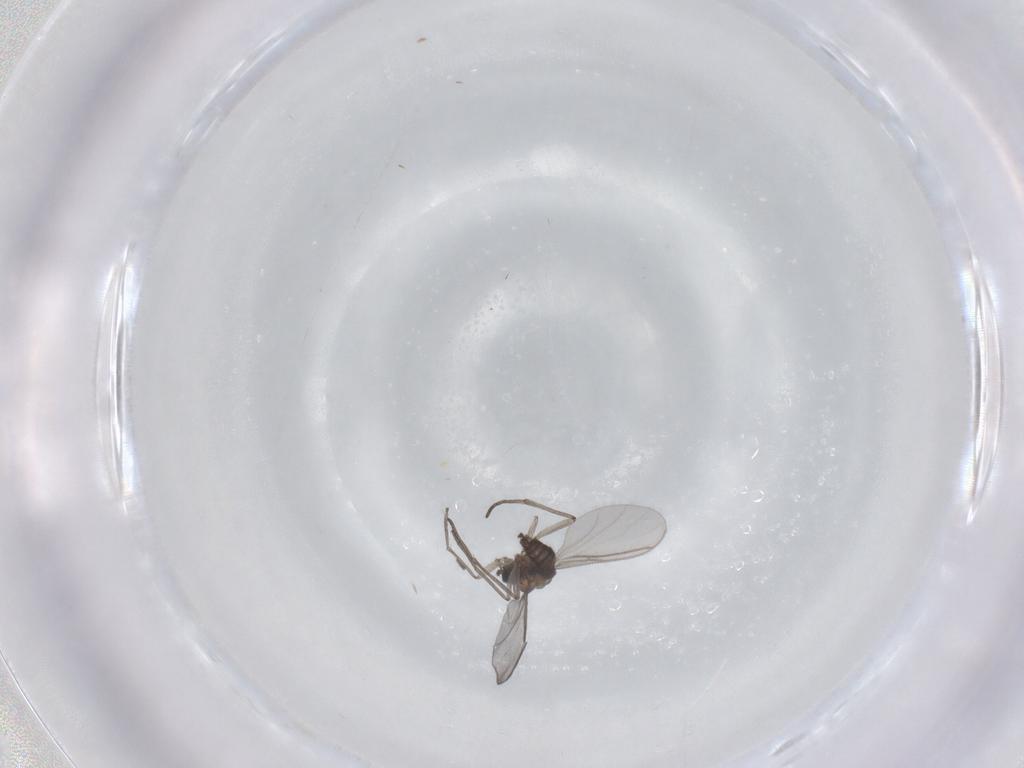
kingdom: Animalia
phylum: Arthropoda
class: Insecta
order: Diptera
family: Sciaridae
